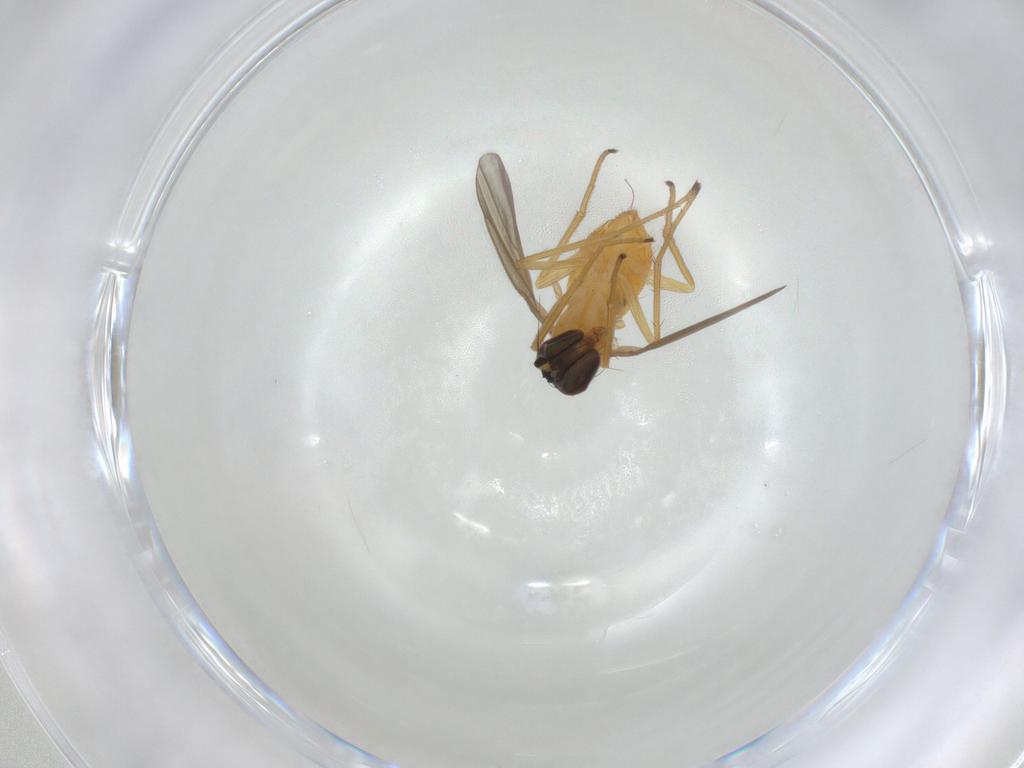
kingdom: Animalia
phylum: Arthropoda
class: Insecta
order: Diptera
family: Dolichopodidae
